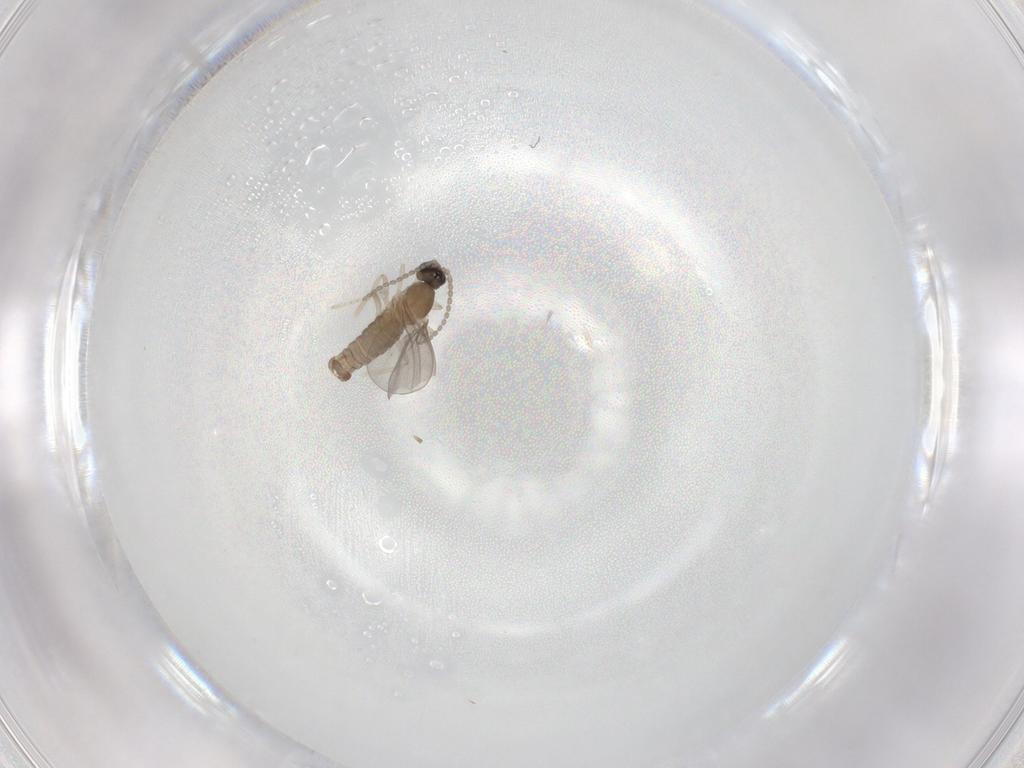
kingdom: Animalia
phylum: Arthropoda
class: Insecta
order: Diptera
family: Cecidomyiidae
